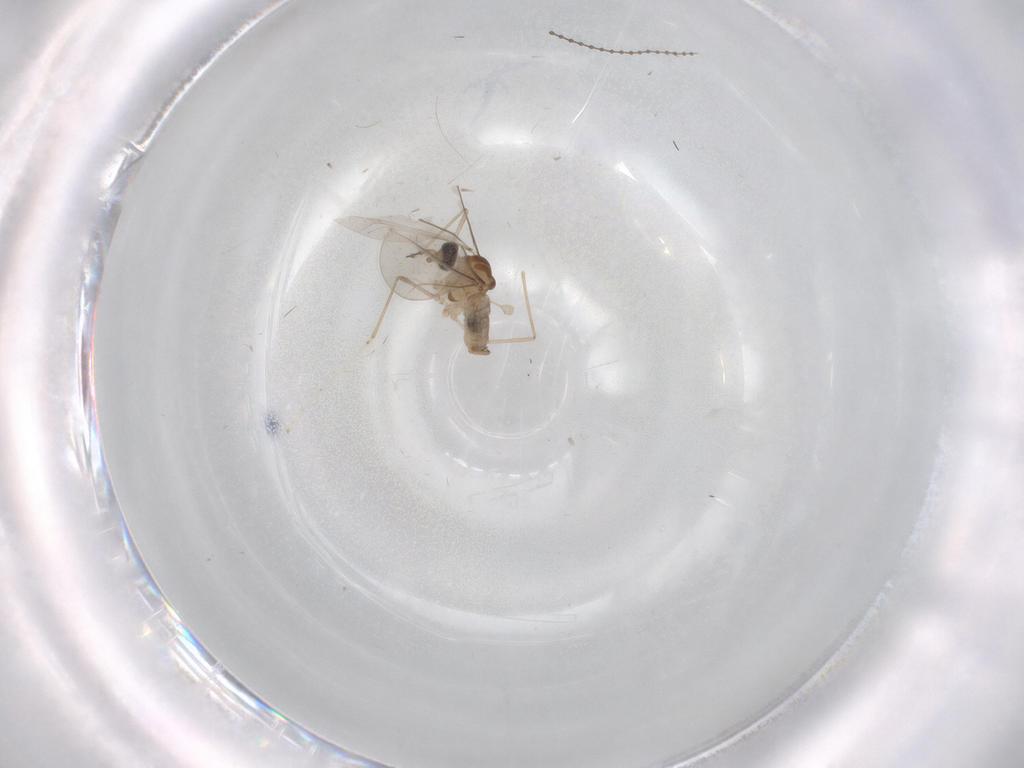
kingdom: Animalia
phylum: Arthropoda
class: Insecta
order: Diptera
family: Cecidomyiidae
